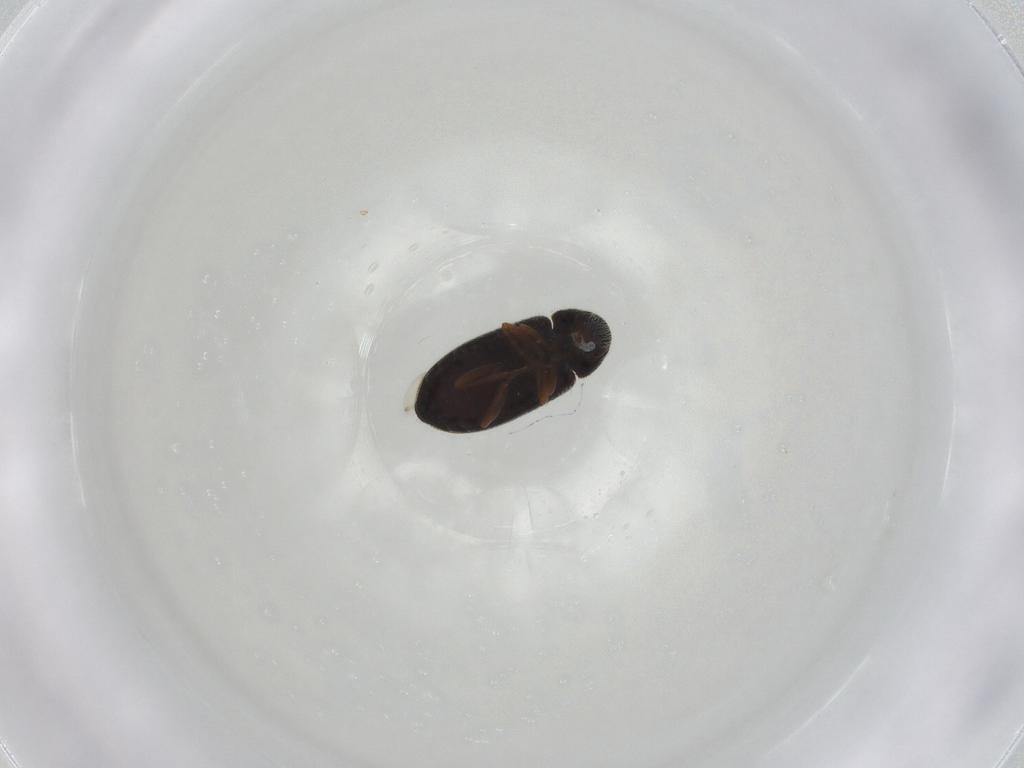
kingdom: Animalia
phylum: Arthropoda
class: Insecta
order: Coleoptera
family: Rhadalidae
